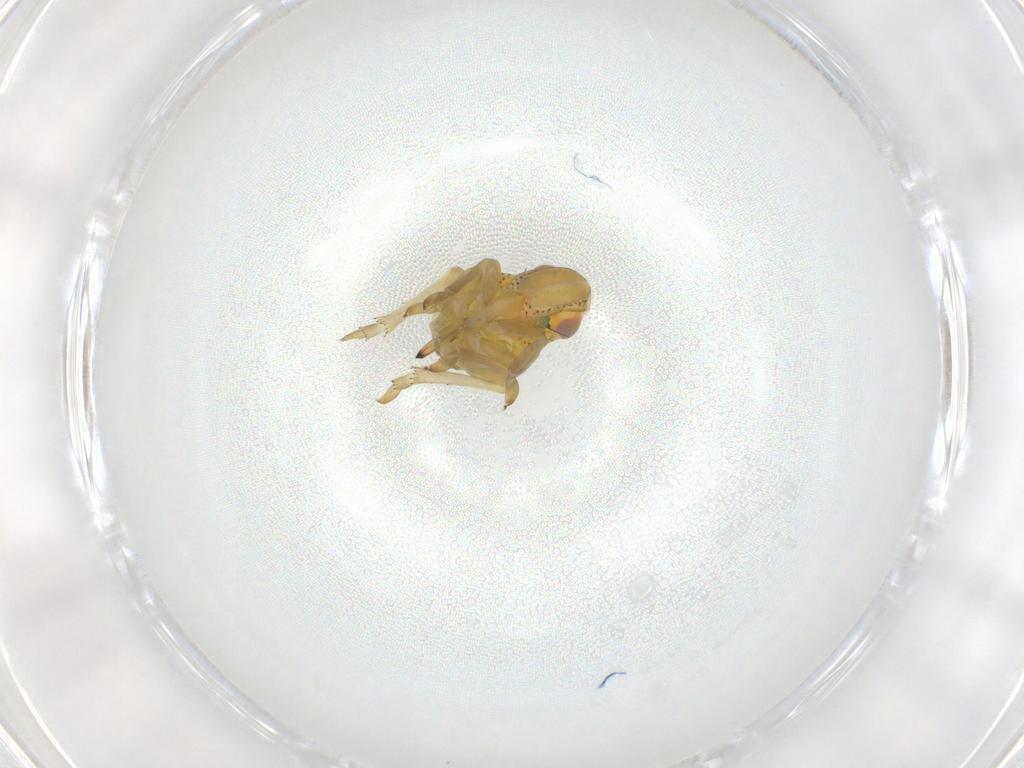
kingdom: Animalia
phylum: Arthropoda
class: Insecta
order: Hemiptera
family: Tropiduchidae
